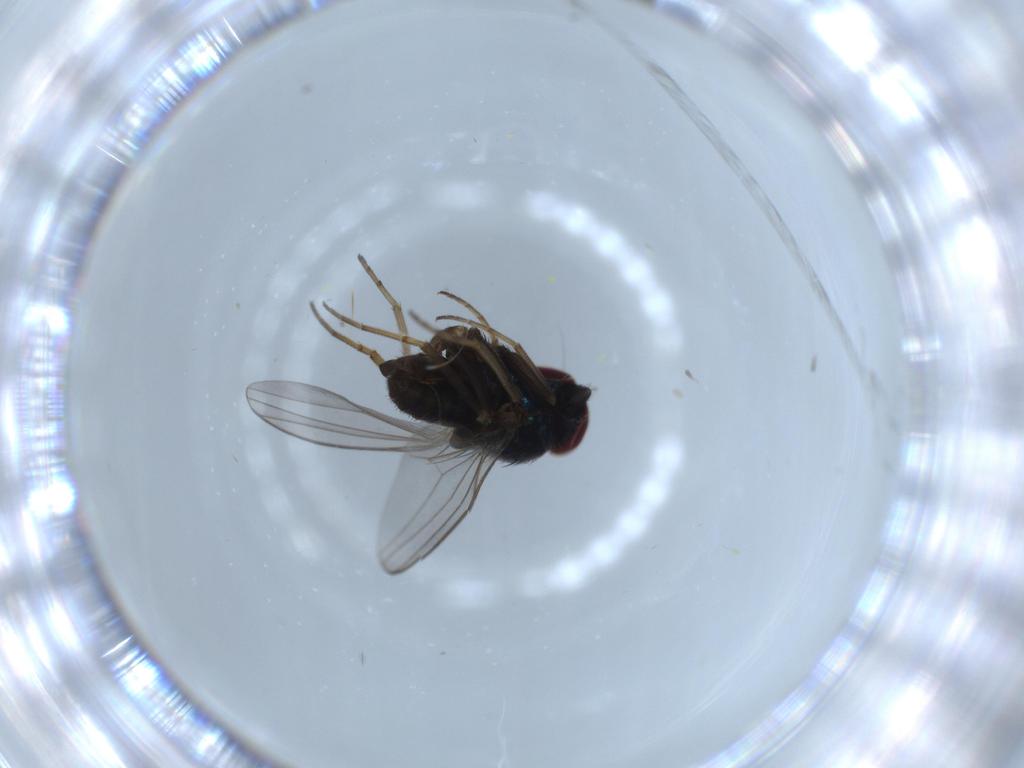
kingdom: Animalia
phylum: Arthropoda
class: Insecta
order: Diptera
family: Dolichopodidae
